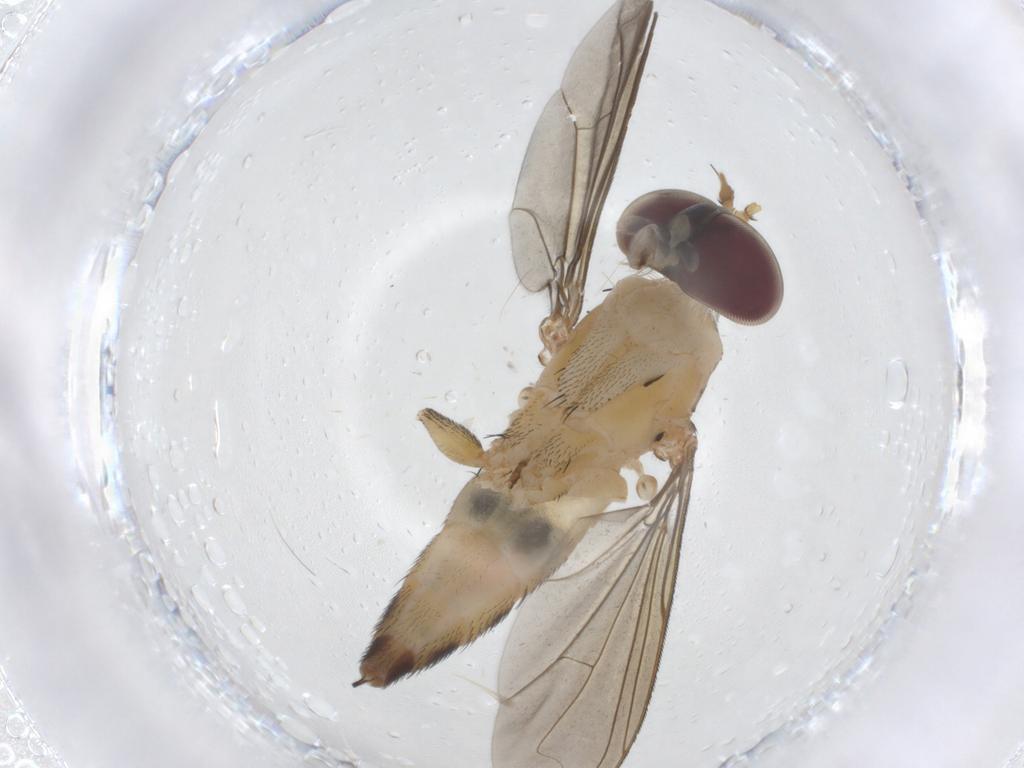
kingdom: Animalia
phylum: Arthropoda
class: Insecta
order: Diptera
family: Dolichopodidae
